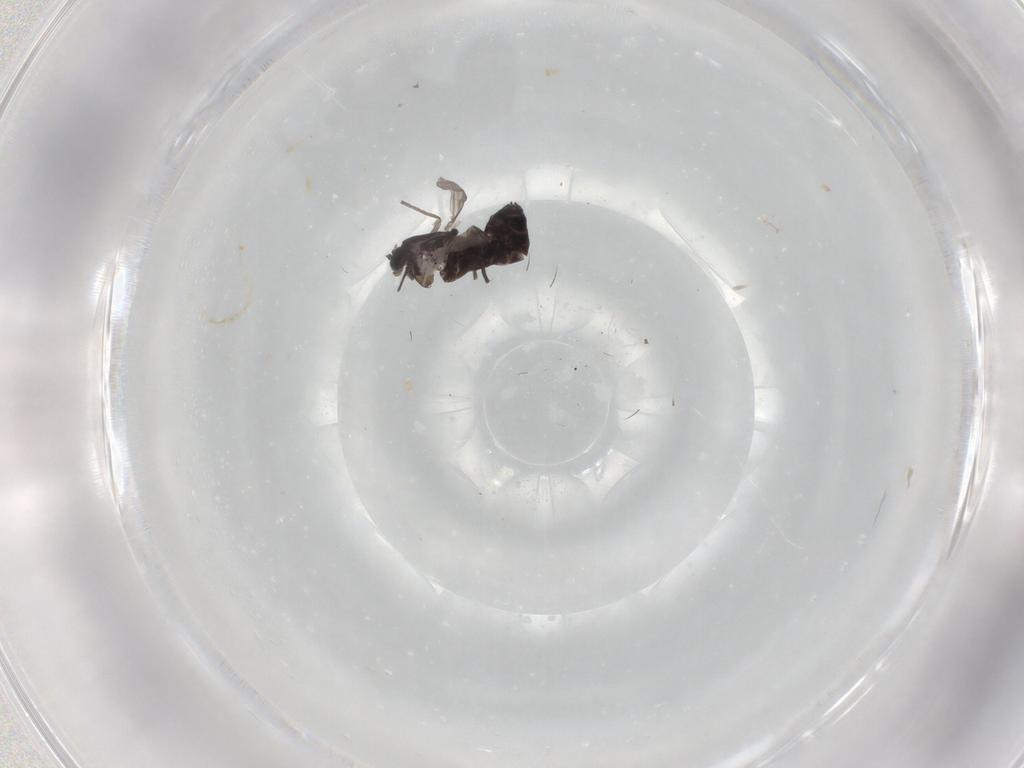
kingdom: Animalia
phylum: Arthropoda
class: Insecta
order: Diptera
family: Chironomidae
